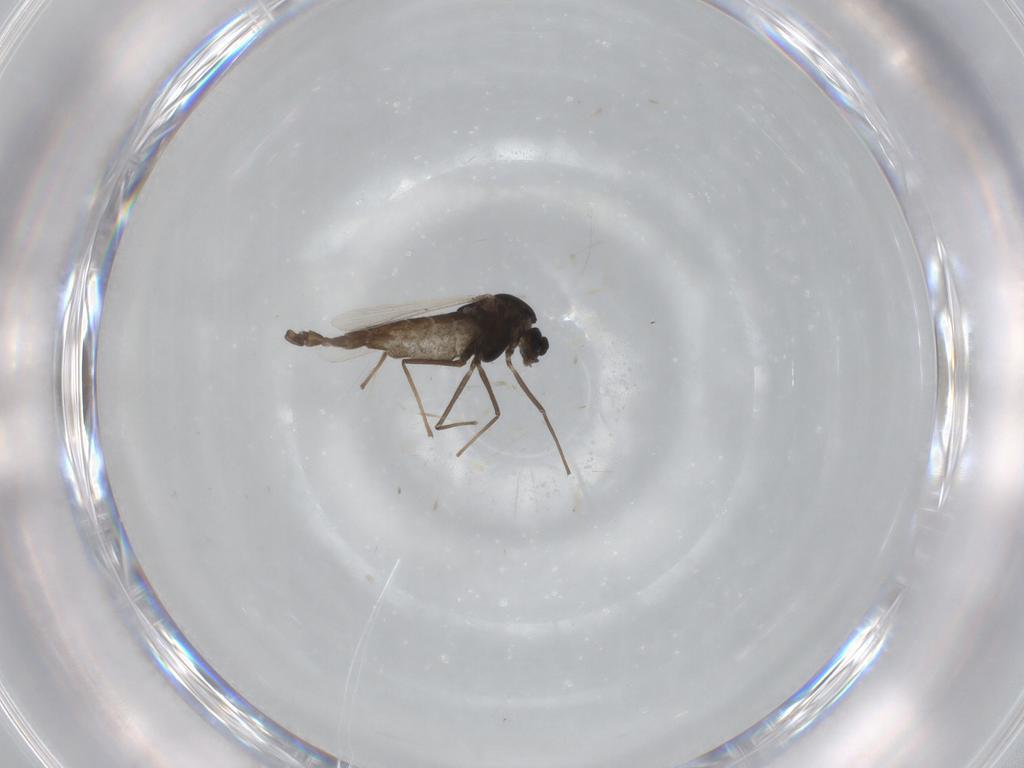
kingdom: Animalia
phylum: Arthropoda
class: Insecta
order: Diptera
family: Chironomidae
